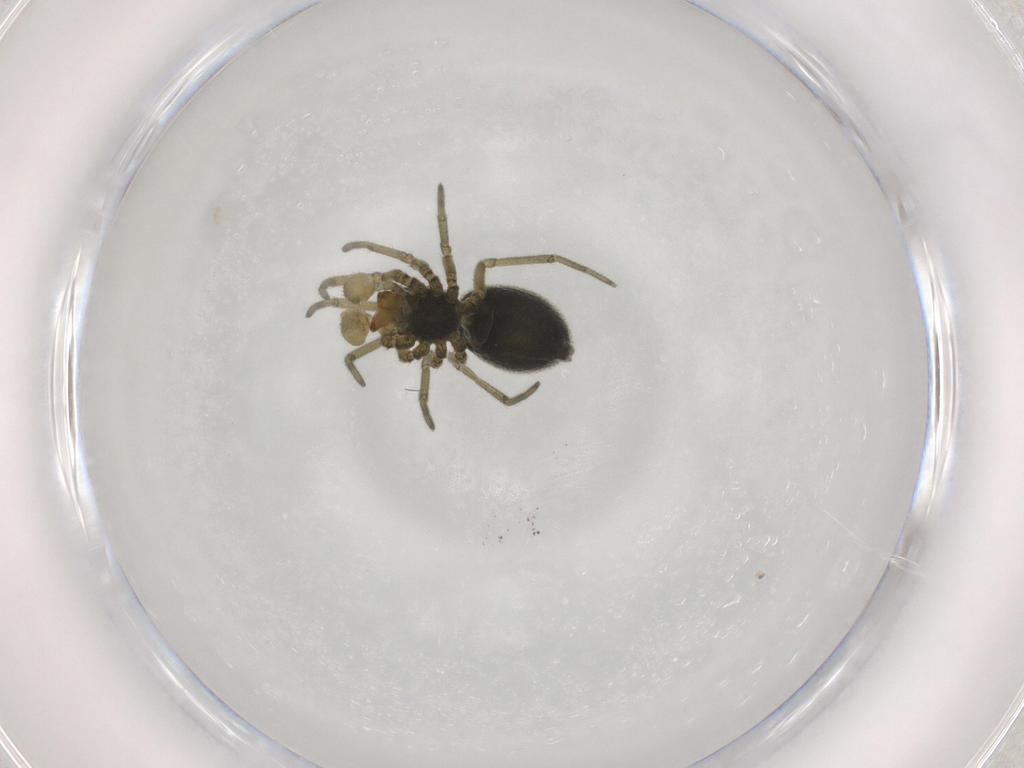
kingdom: Animalia
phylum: Arthropoda
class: Arachnida
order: Araneae
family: Linyphiidae
